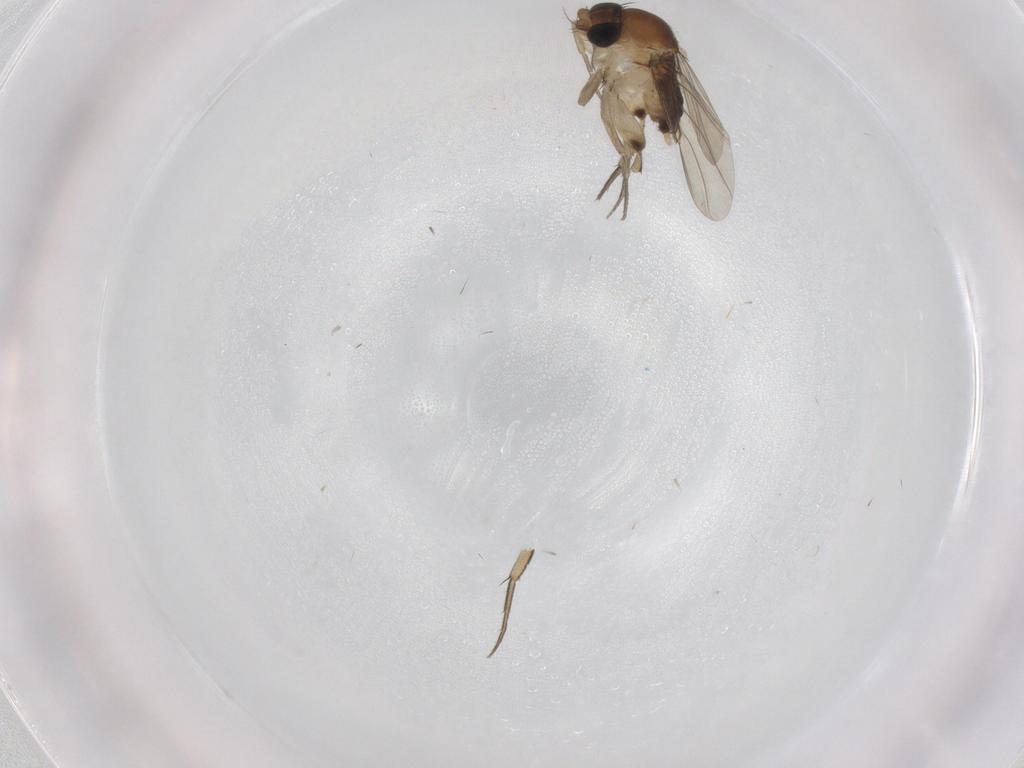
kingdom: Animalia
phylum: Arthropoda
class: Insecta
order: Diptera
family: Phoridae
